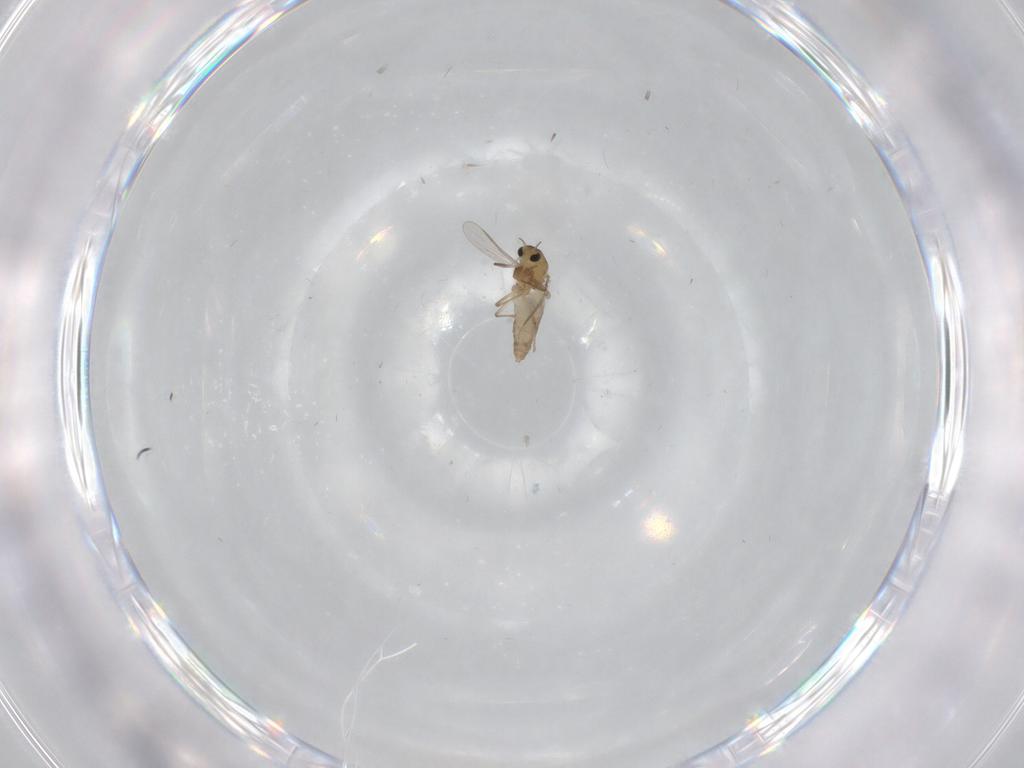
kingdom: Animalia
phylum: Arthropoda
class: Insecta
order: Diptera
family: Chironomidae
